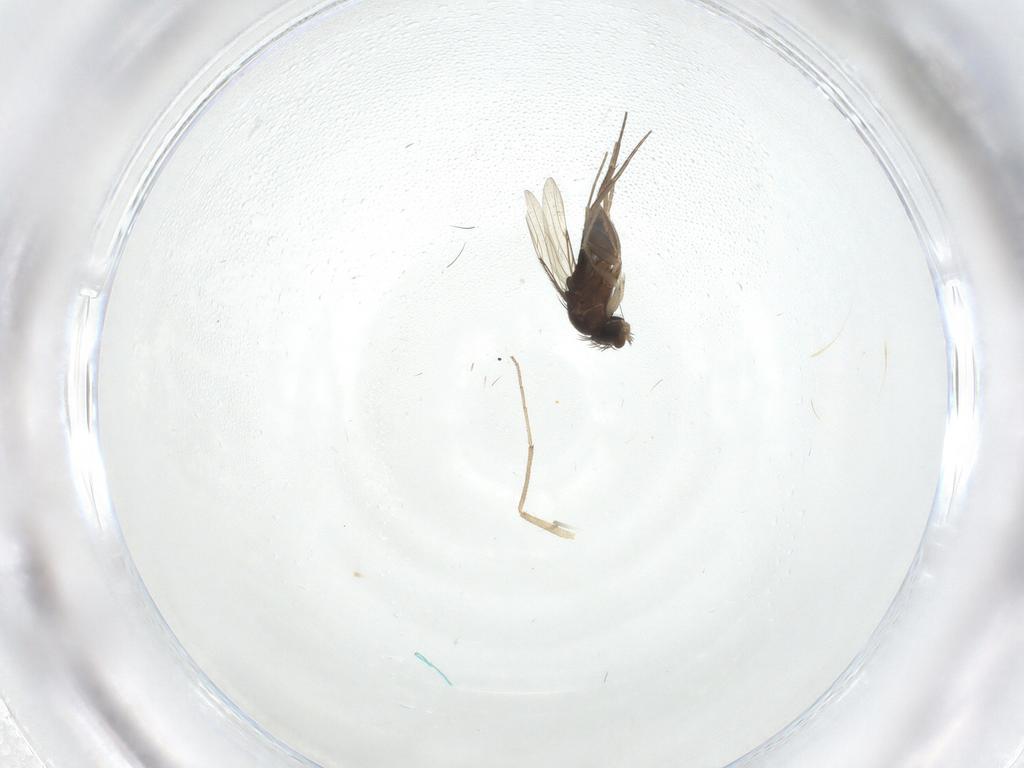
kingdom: Animalia
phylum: Arthropoda
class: Insecta
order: Diptera
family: Phoridae
